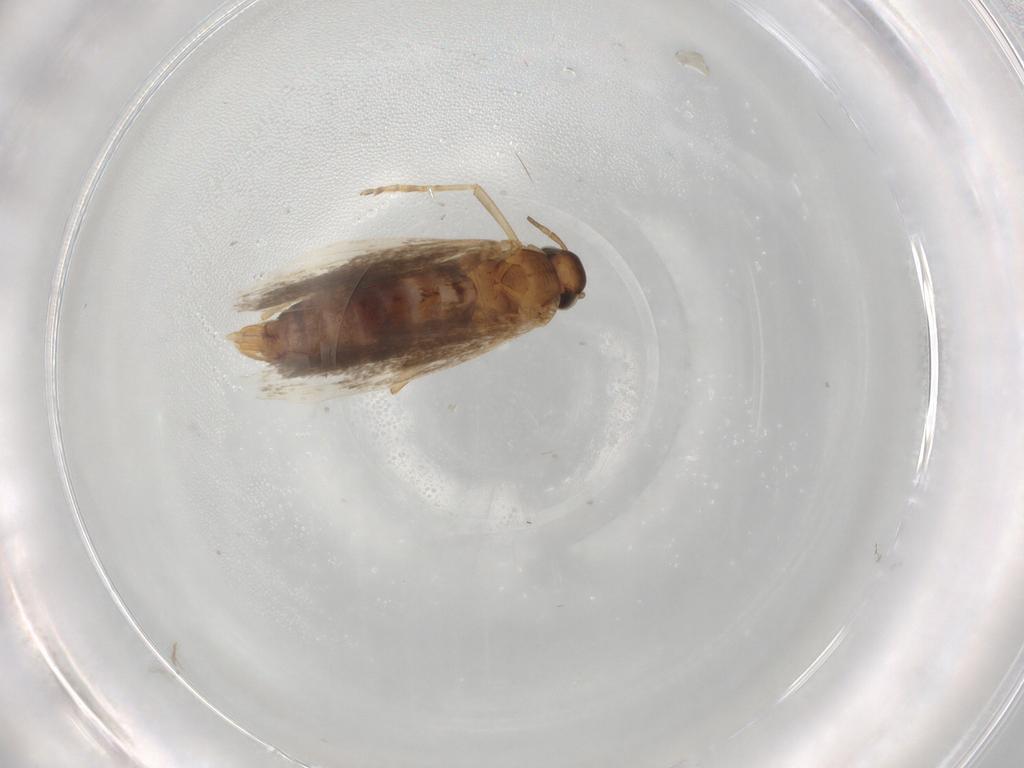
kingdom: Animalia
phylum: Arthropoda
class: Insecta
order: Lepidoptera
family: Gelechiidae
